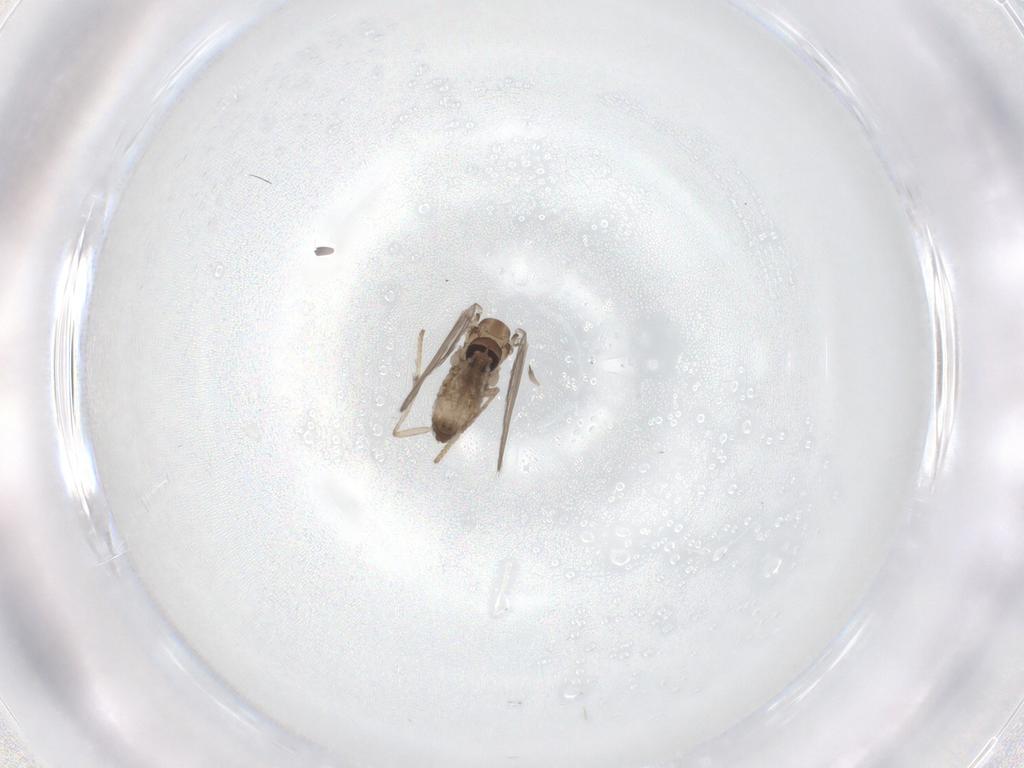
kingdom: Animalia
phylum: Arthropoda
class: Insecta
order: Diptera
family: Psychodidae
